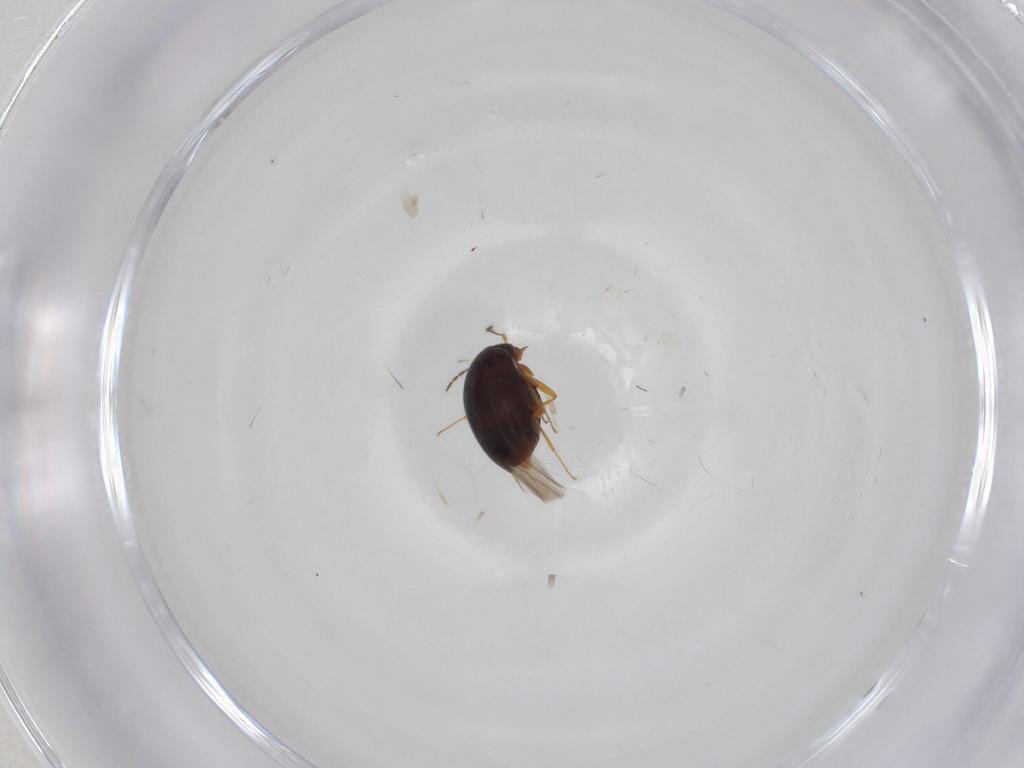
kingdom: Animalia
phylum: Arthropoda
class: Insecta
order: Coleoptera
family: Staphylinidae
